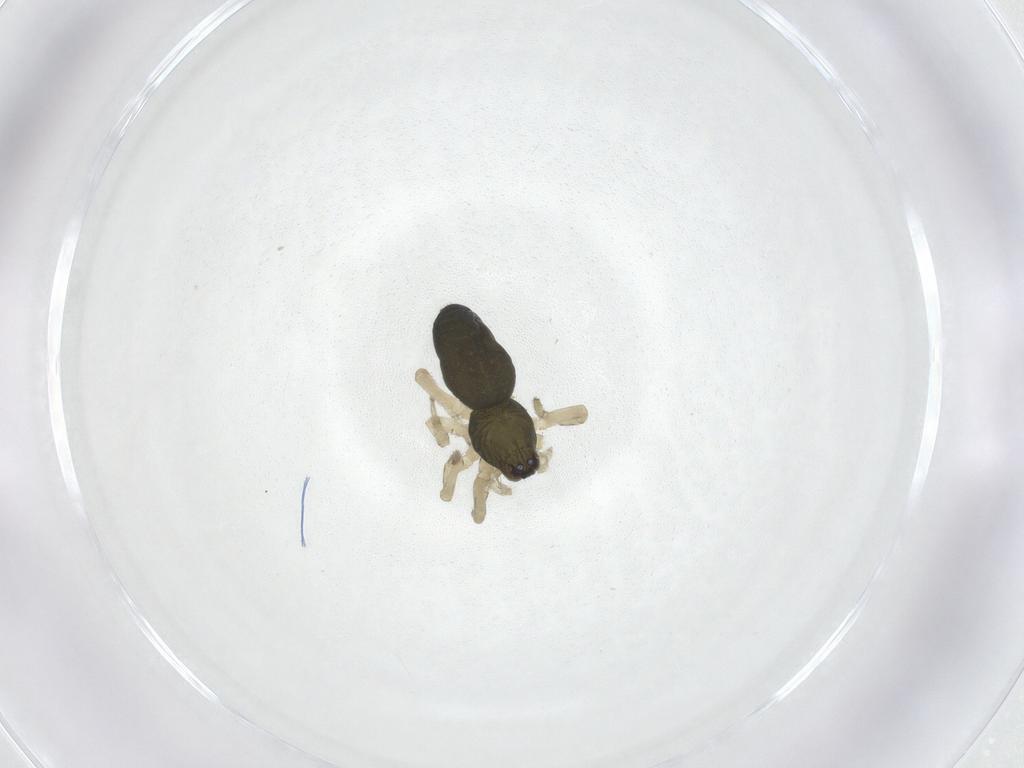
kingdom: Animalia
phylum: Arthropoda
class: Arachnida
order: Araneae
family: Trachelidae
